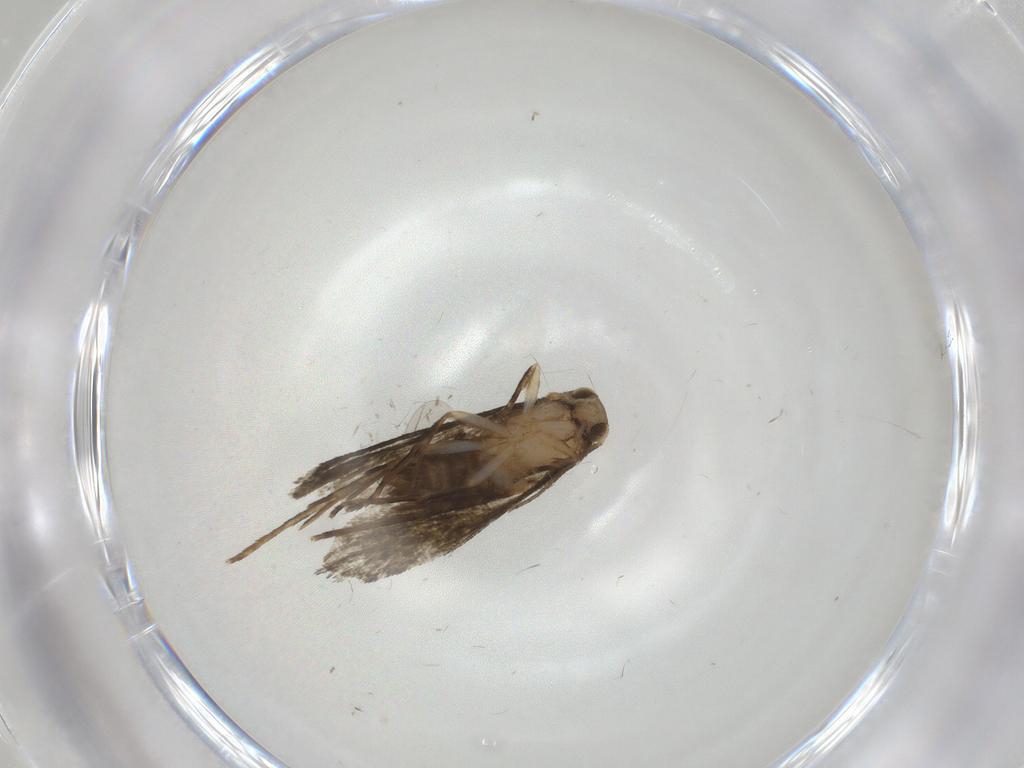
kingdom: Animalia
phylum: Arthropoda
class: Insecta
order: Lepidoptera
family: Tineidae
